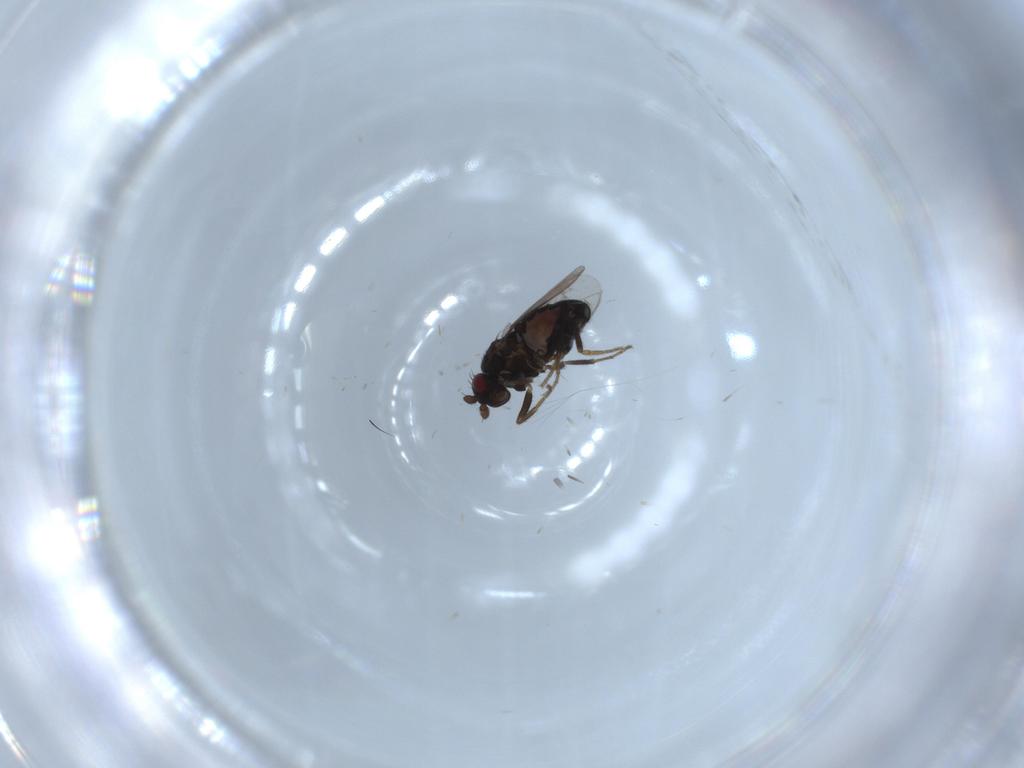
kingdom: Animalia
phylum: Arthropoda
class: Insecta
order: Diptera
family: Sphaeroceridae
